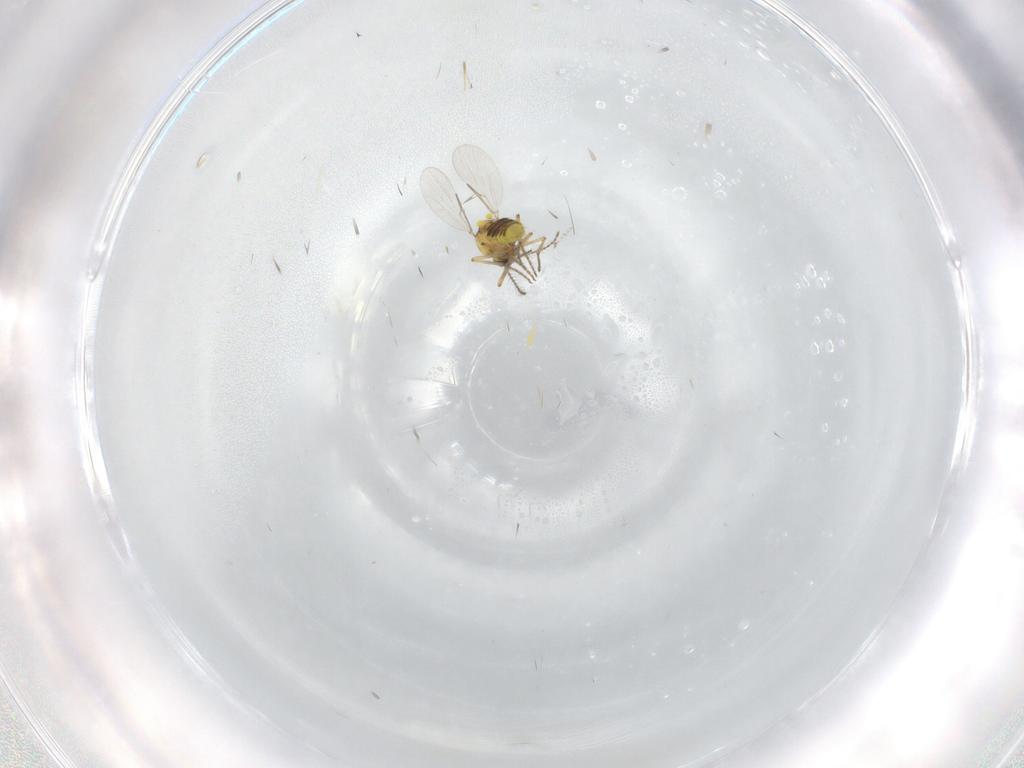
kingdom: Animalia
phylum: Arthropoda
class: Insecta
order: Diptera
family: Cecidomyiidae
